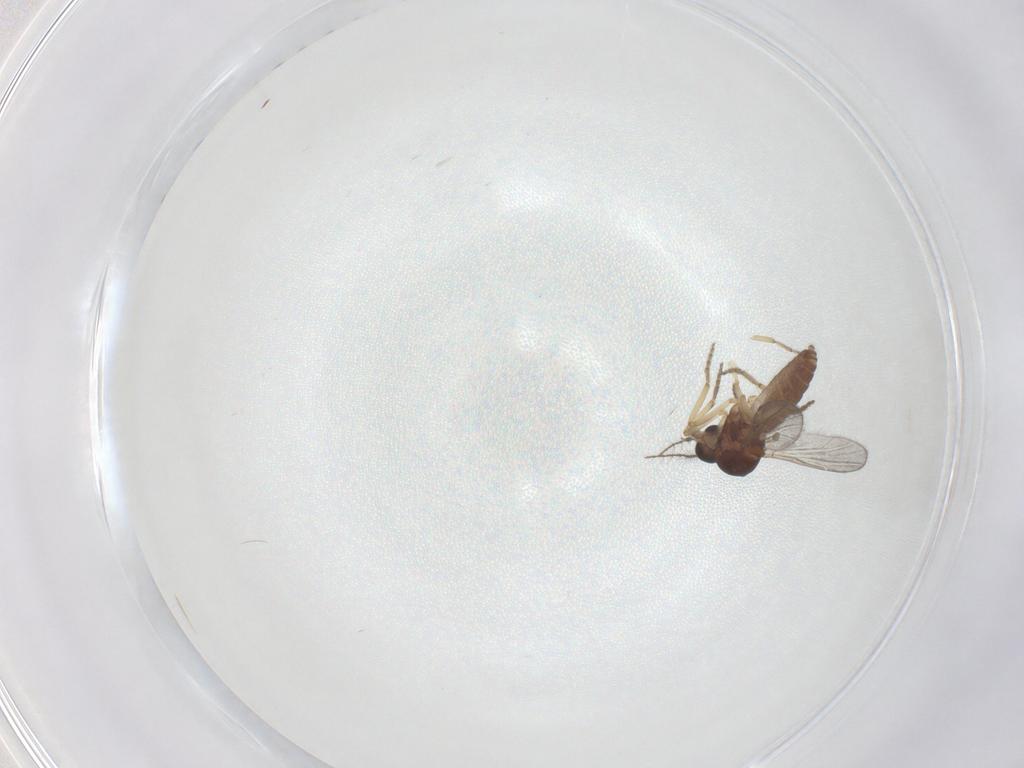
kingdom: Animalia
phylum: Arthropoda
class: Insecta
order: Diptera
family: Ceratopogonidae
